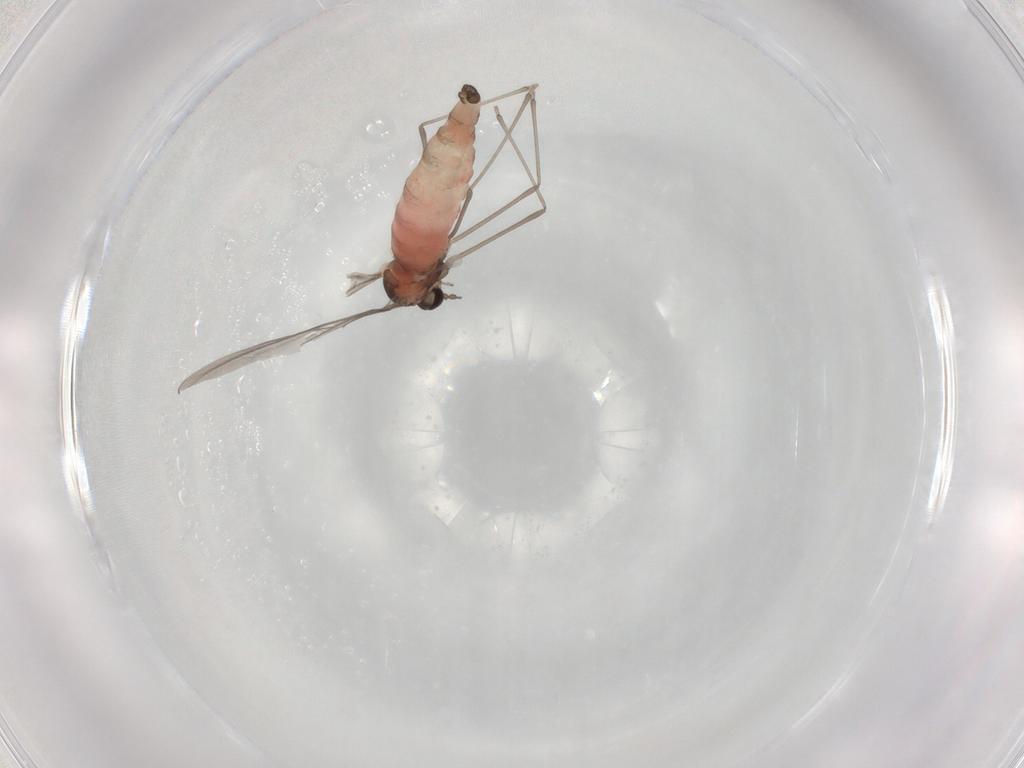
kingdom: Animalia
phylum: Arthropoda
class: Insecta
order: Diptera
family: Cecidomyiidae
